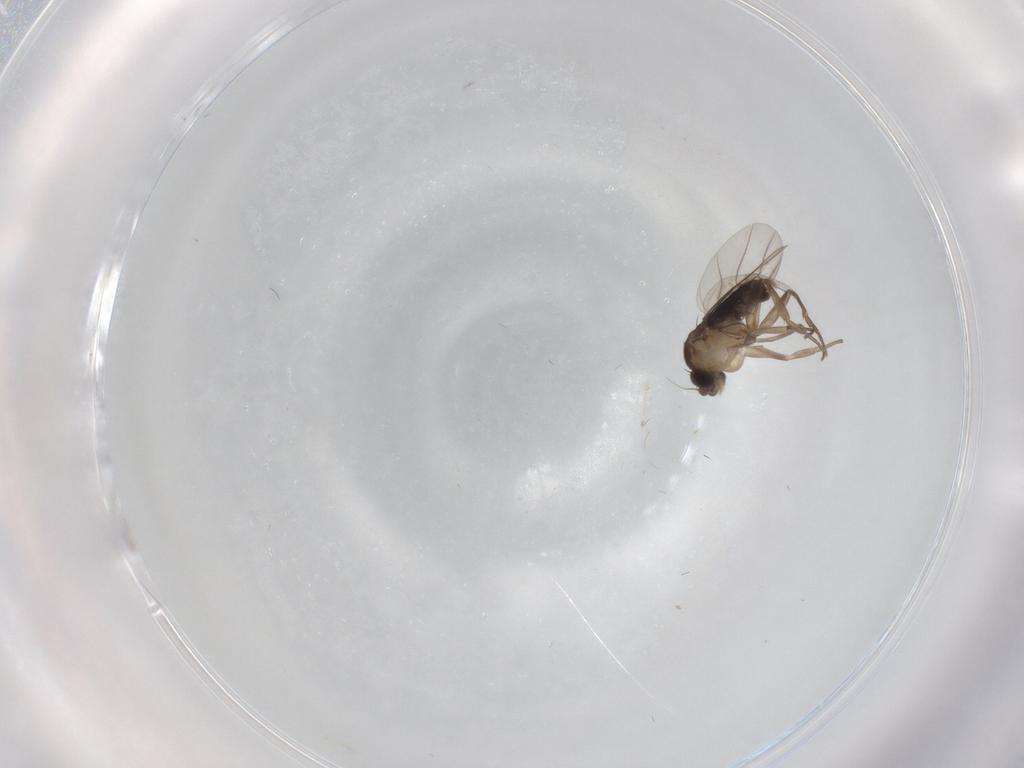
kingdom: Animalia
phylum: Arthropoda
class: Insecta
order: Diptera
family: Phoridae
